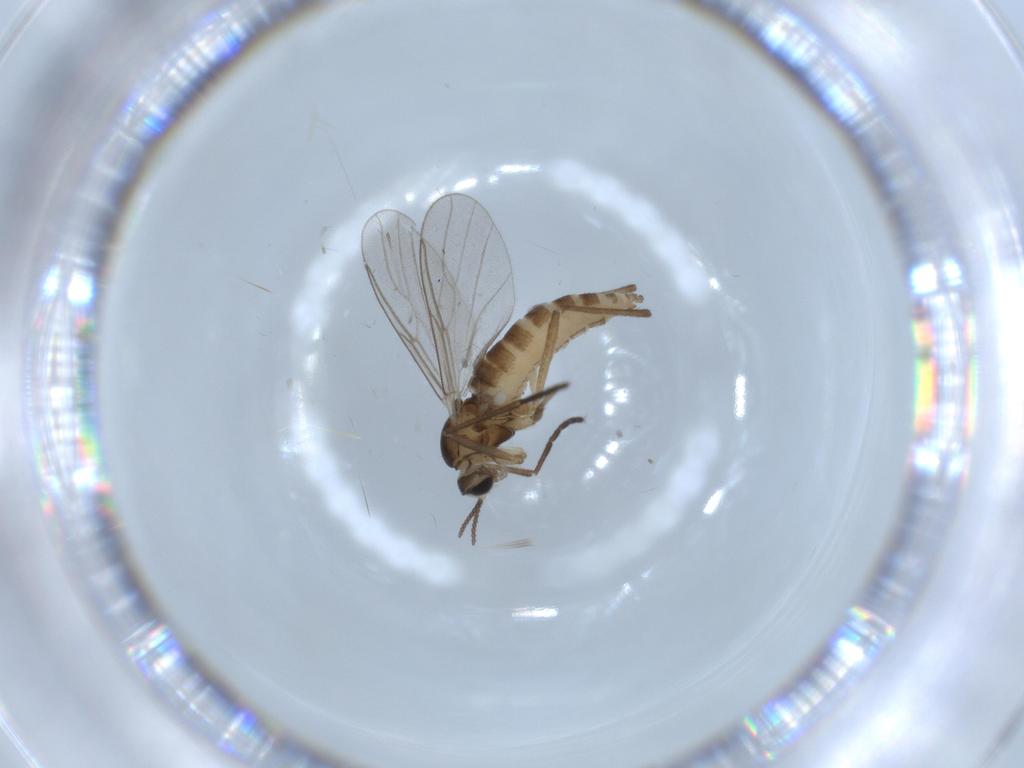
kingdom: Animalia
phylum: Arthropoda
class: Insecta
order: Diptera
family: Cecidomyiidae
